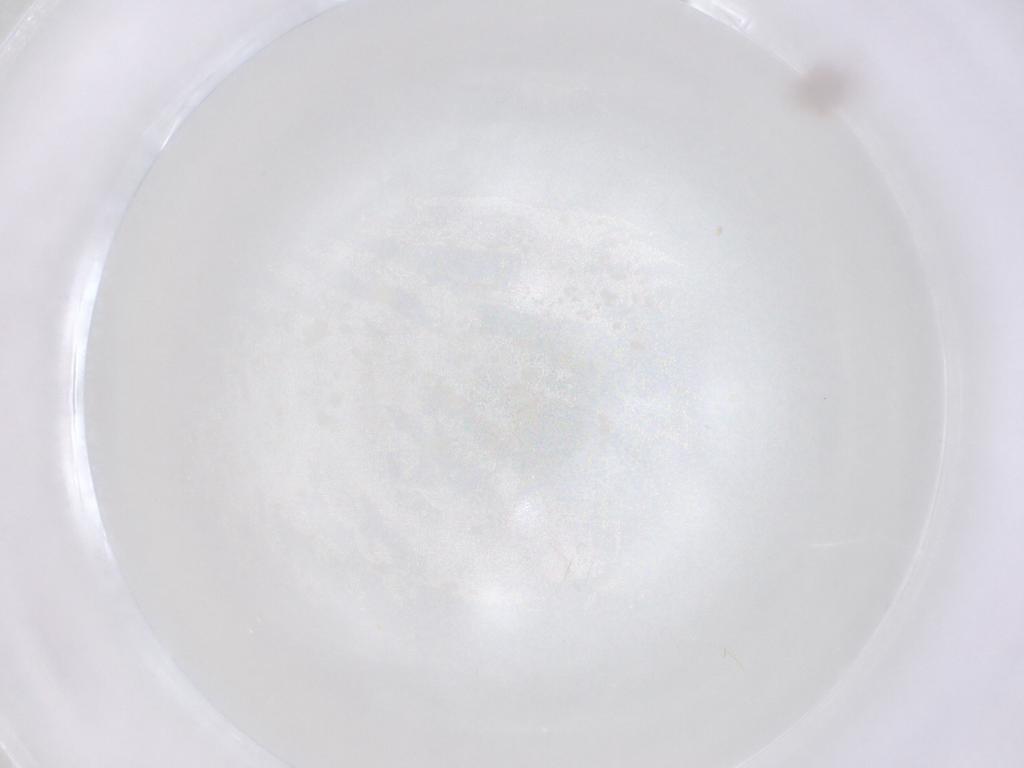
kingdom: Animalia
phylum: Arthropoda
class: Insecta
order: Hymenoptera
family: Braconidae
